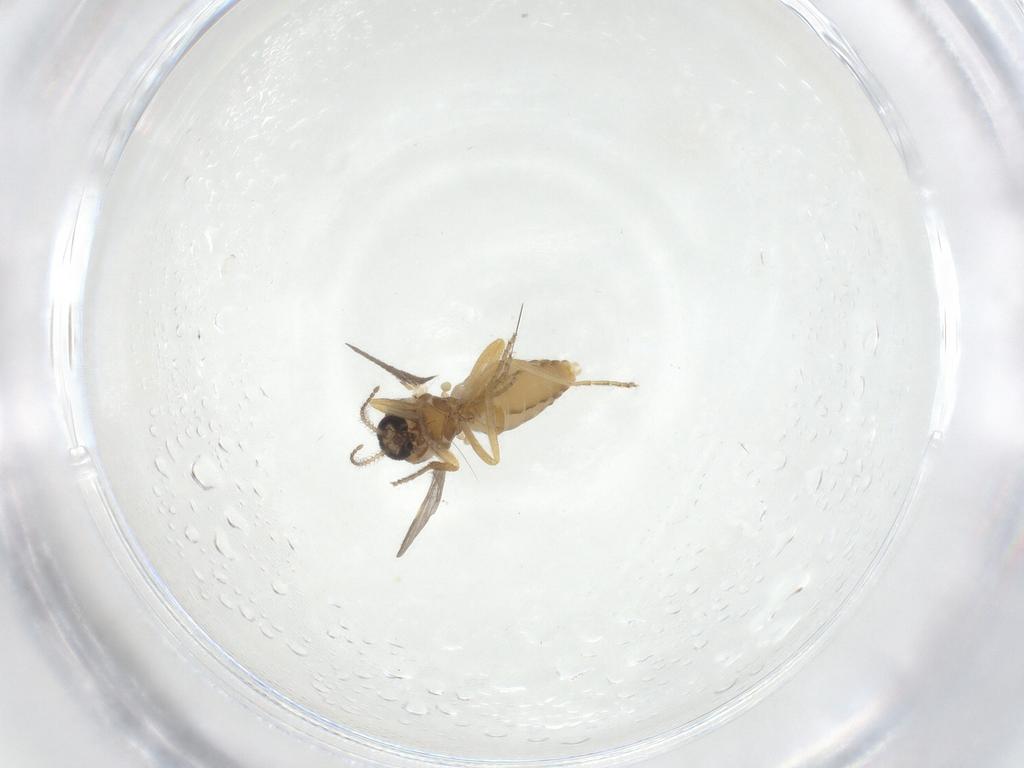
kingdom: Animalia
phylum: Arthropoda
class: Insecta
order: Diptera
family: Ceratopogonidae
